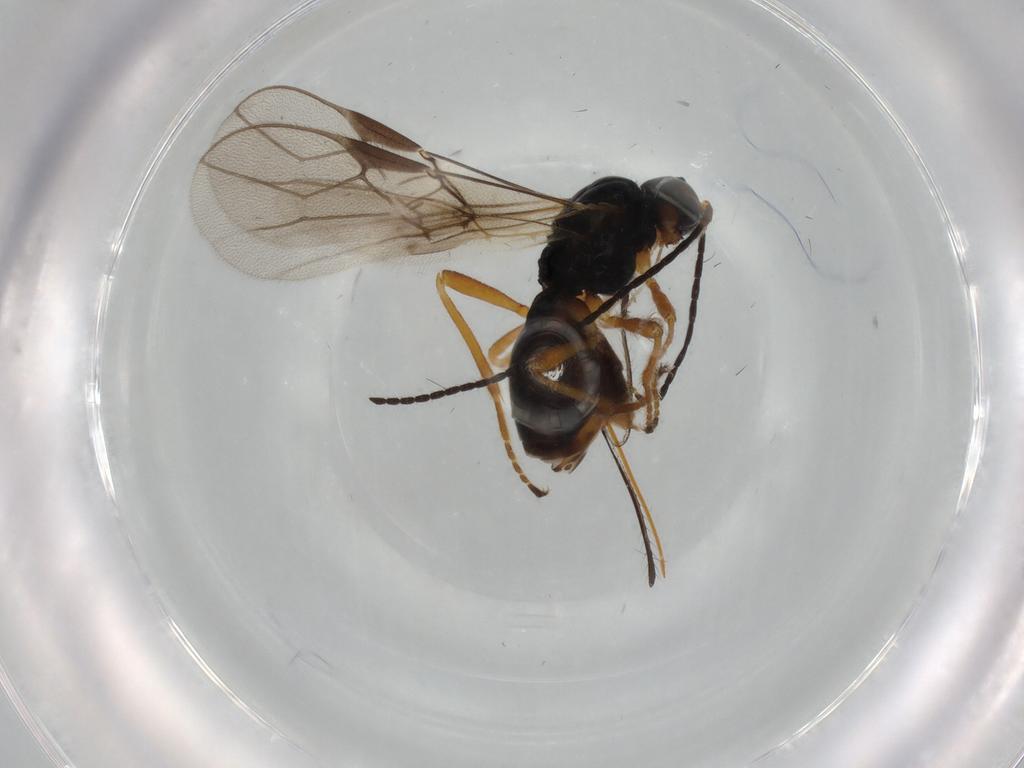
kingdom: Animalia
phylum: Arthropoda
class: Insecta
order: Hymenoptera
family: Braconidae
